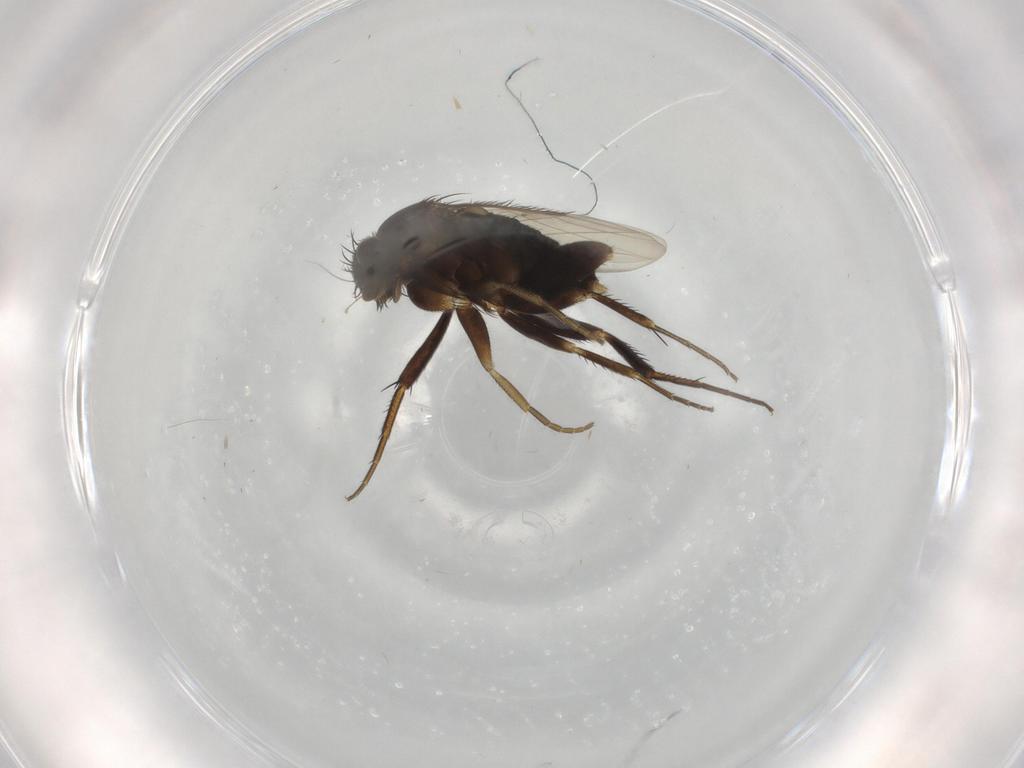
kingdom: Animalia
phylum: Arthropoda
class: Insecta
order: Diptera
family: Phoridae
